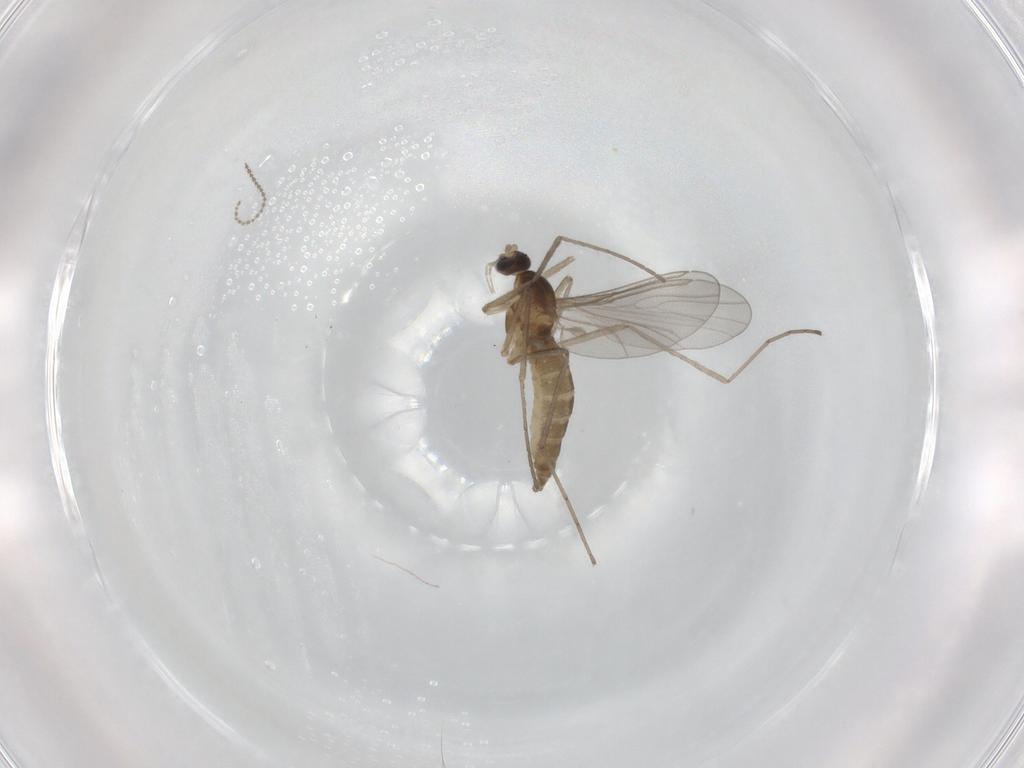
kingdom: Animalia
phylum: Arthropoda
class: Insecta
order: Diptera
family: Cecidomyiidae
